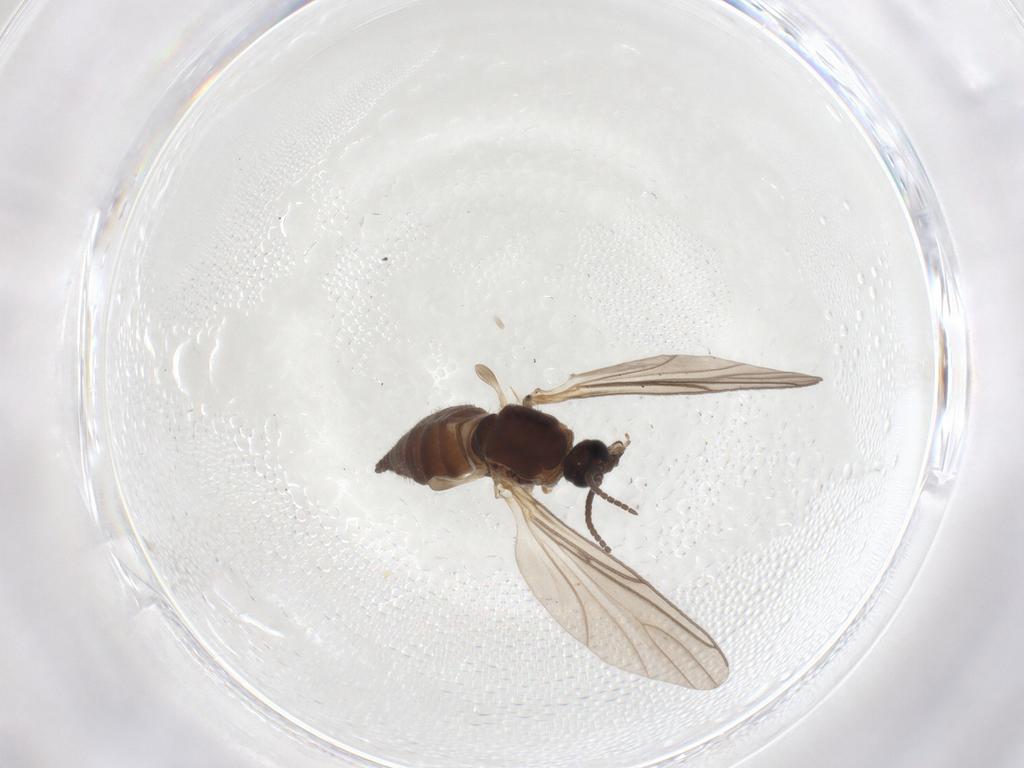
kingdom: Animalia
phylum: Arthropoda
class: Insecta
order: Diptera
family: Sciaridae
